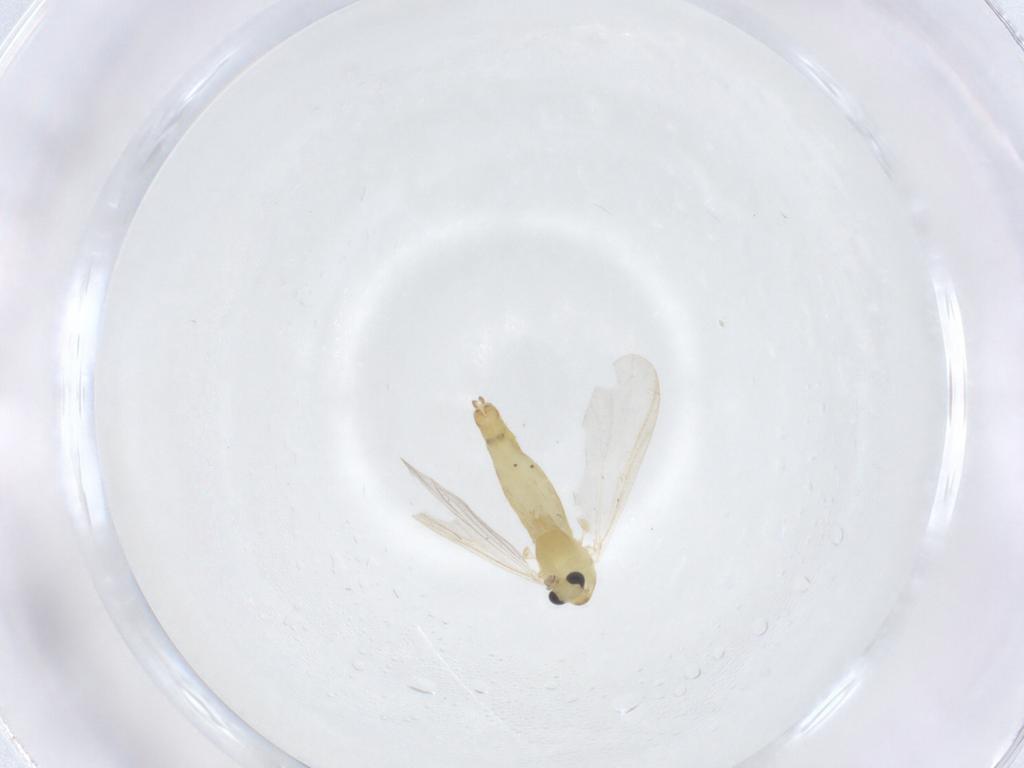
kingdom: Animalia
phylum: Arthropoda
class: Insecta
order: Diptera
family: Chironomidae
